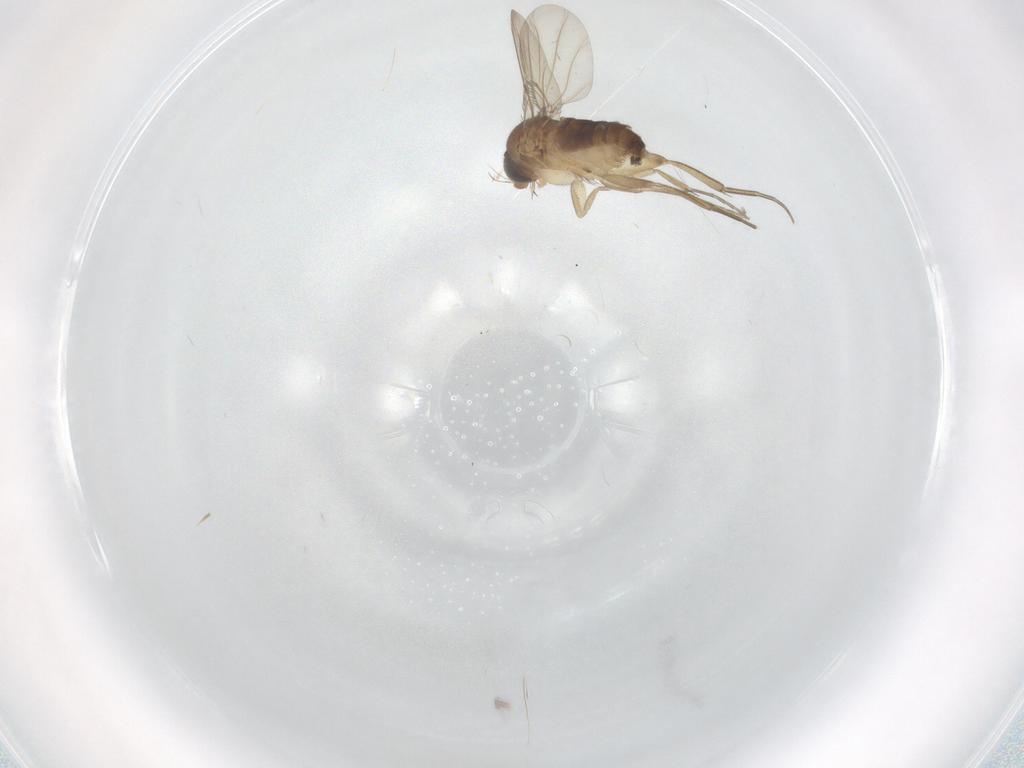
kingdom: Animalia
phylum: Arthropoda
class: Insecta
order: Diptera
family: Phoridae
